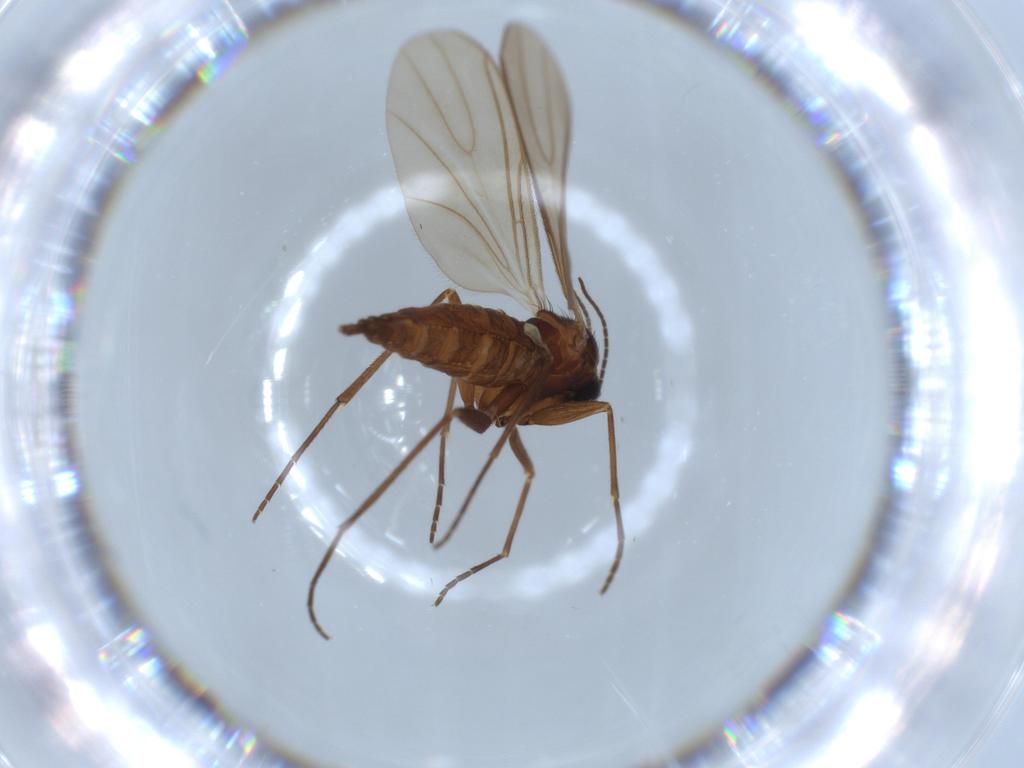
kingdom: Animalia
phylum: Arthropoda
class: Insecta
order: Diptera
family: Sciaridae
